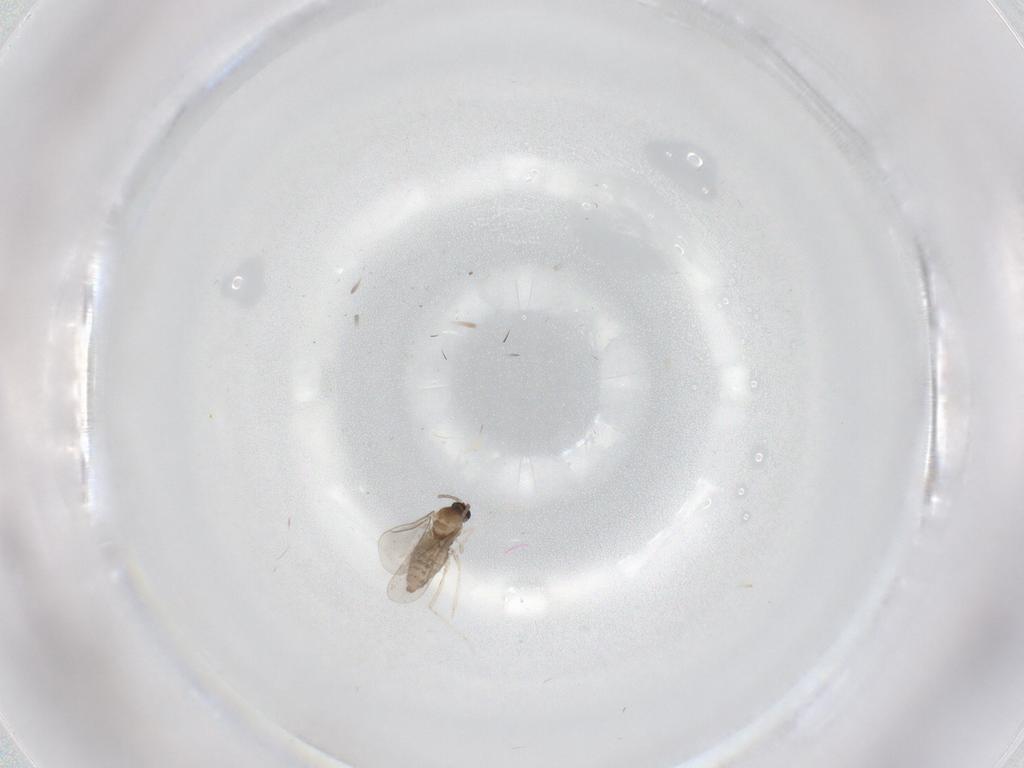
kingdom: Animalia
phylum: Arthropoda
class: Insecta
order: Diptera
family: Cecidomyiidae
